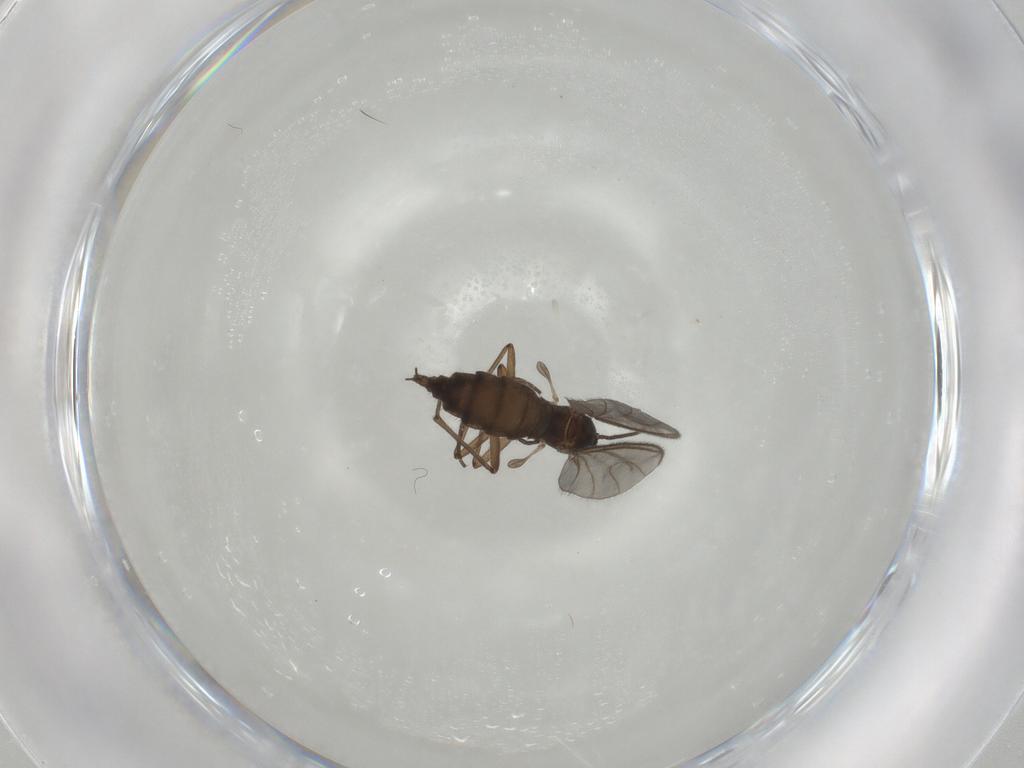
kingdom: Animalia
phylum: Arthropoda
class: Insecta
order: Diptera
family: Sciaridae
